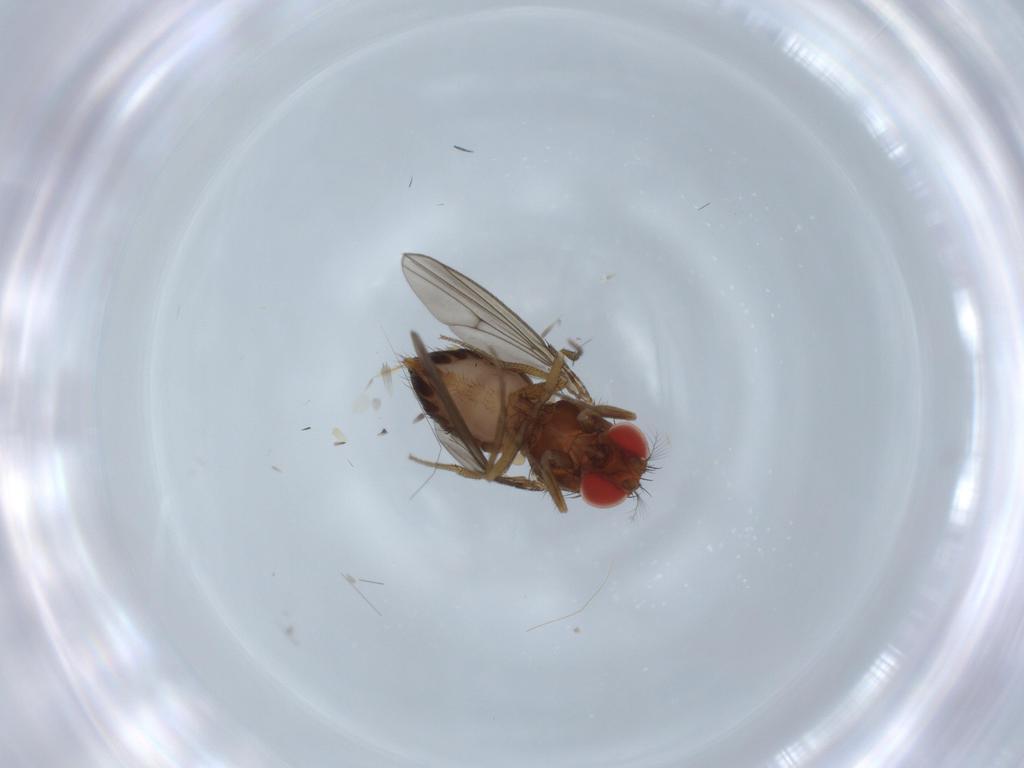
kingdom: Animalia
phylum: Arthropoda
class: Insecta
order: Diptera
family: Drosophilidae
